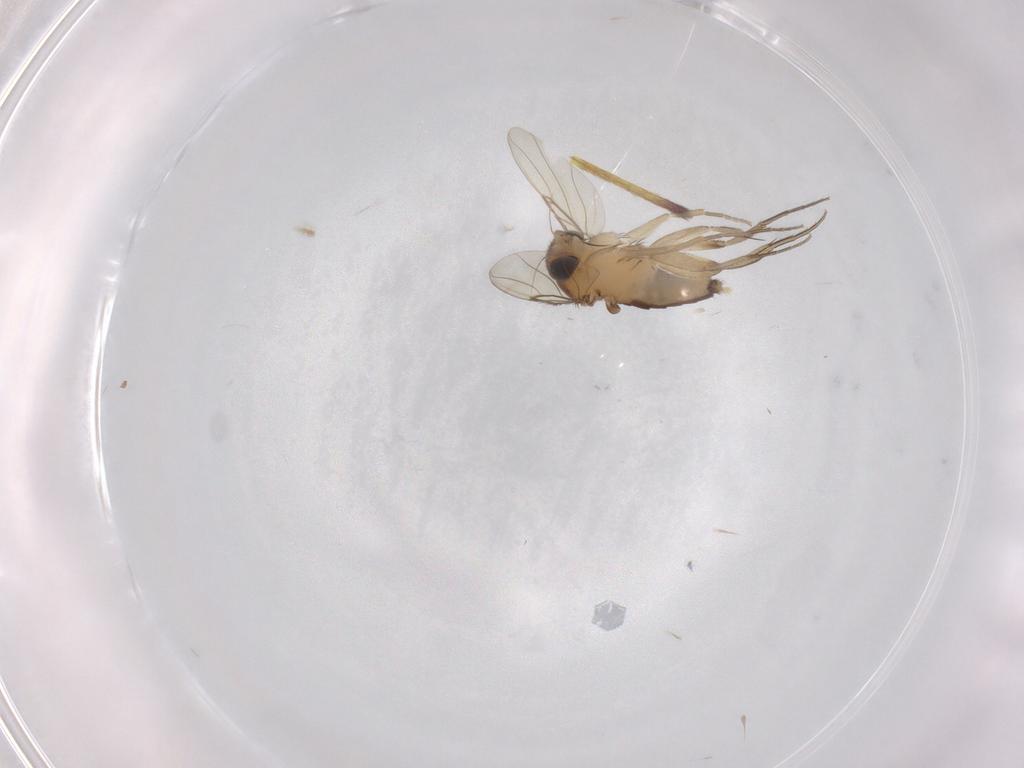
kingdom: Animalia
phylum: Arthropoda
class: Insecta
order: Diptera
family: Phoridae
